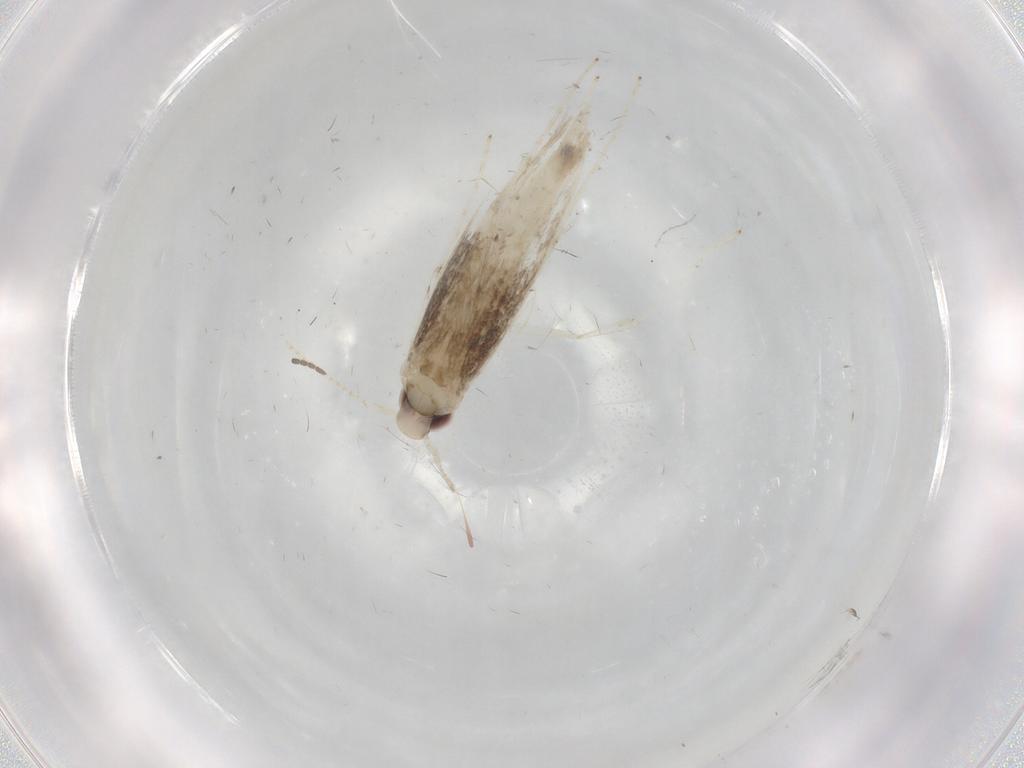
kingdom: Animalia
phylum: Arthropoda
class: Insecta
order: Lepidoptera
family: Gracillariidae
